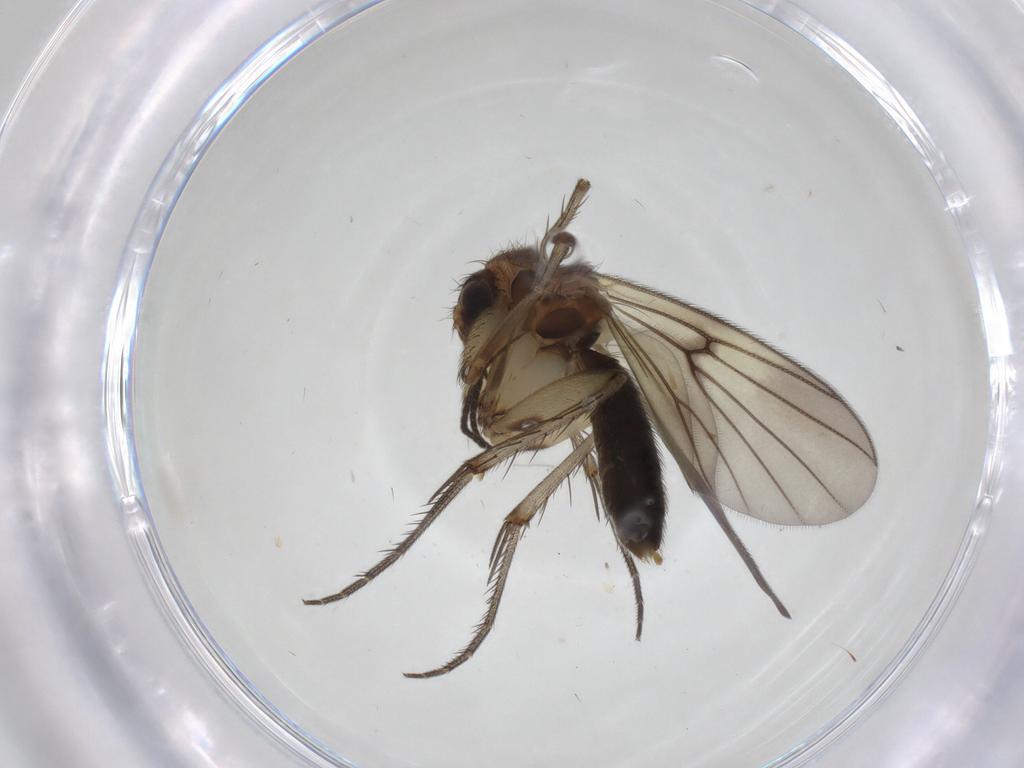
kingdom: Animalia
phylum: Arthropoda
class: Insecta
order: Diptera
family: Mycetophilidae
